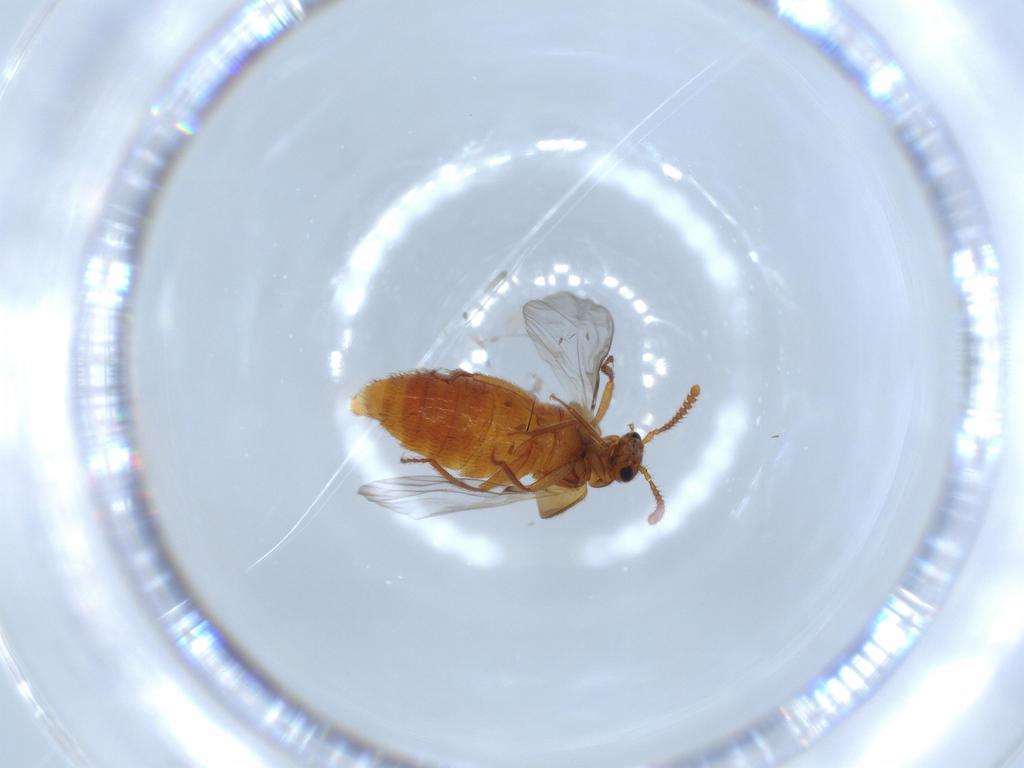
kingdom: Animalia
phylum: Arthropoda
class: Insecta
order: Coleoptera
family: Staphylinidae
